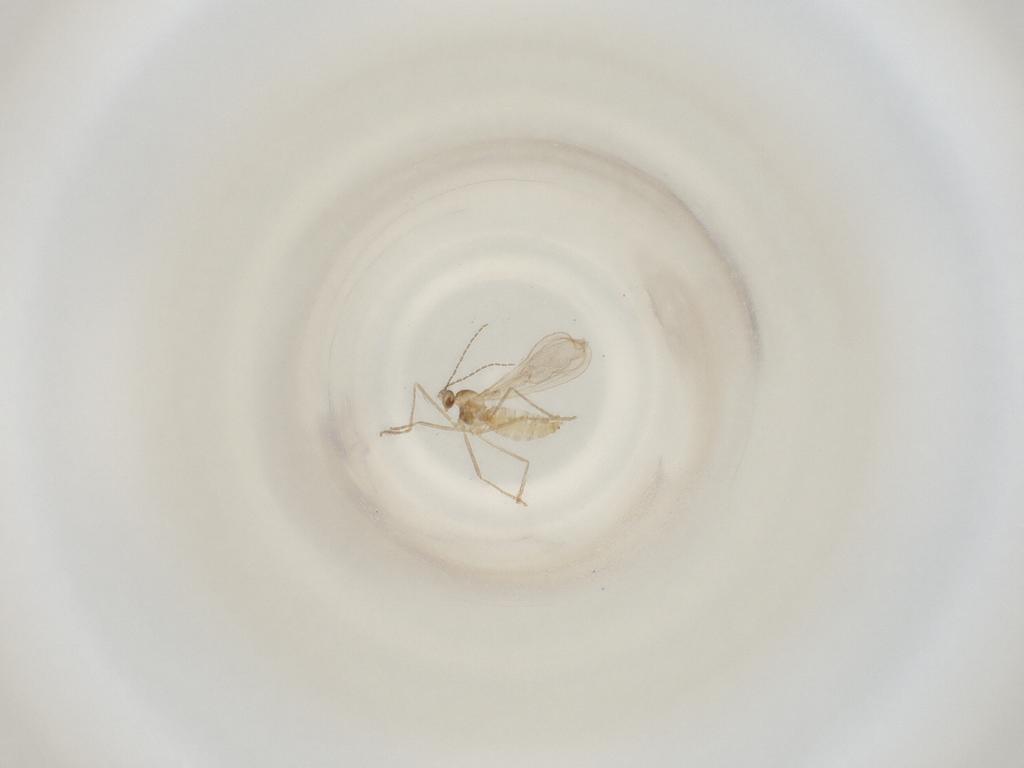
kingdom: Animalia
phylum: Arthropoda
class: Insecta
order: Diptera
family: Cecidomyiidae
